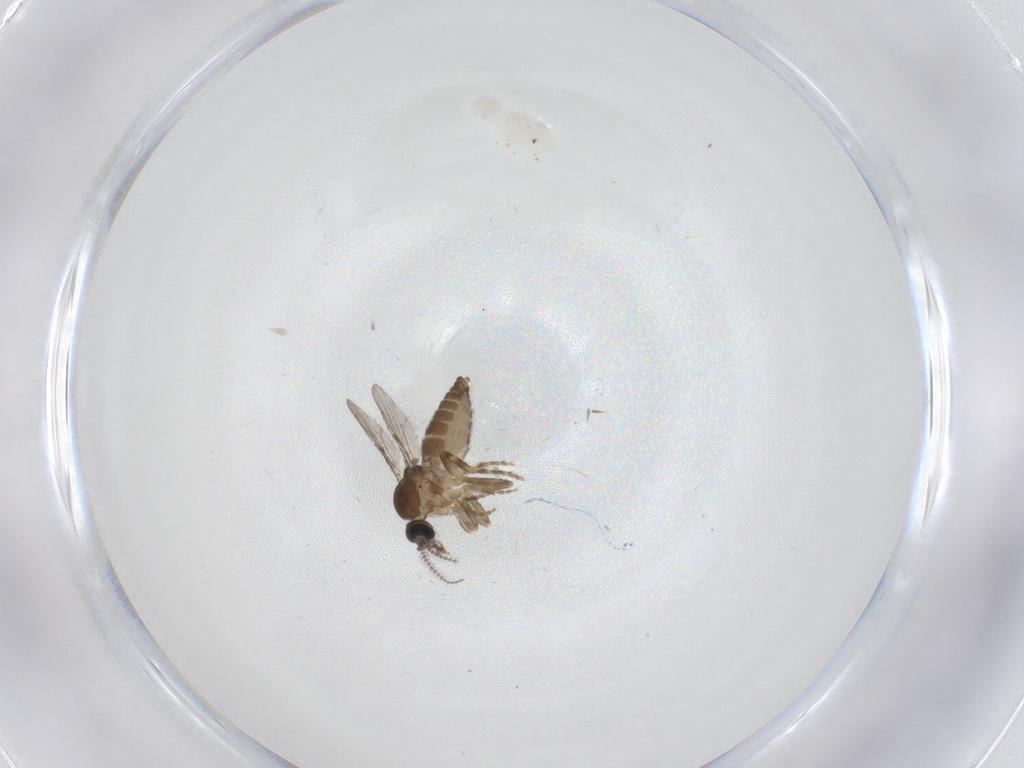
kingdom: Animalia
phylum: Arthropoda
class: Insecta
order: Diptera
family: Ceratopogonidae
